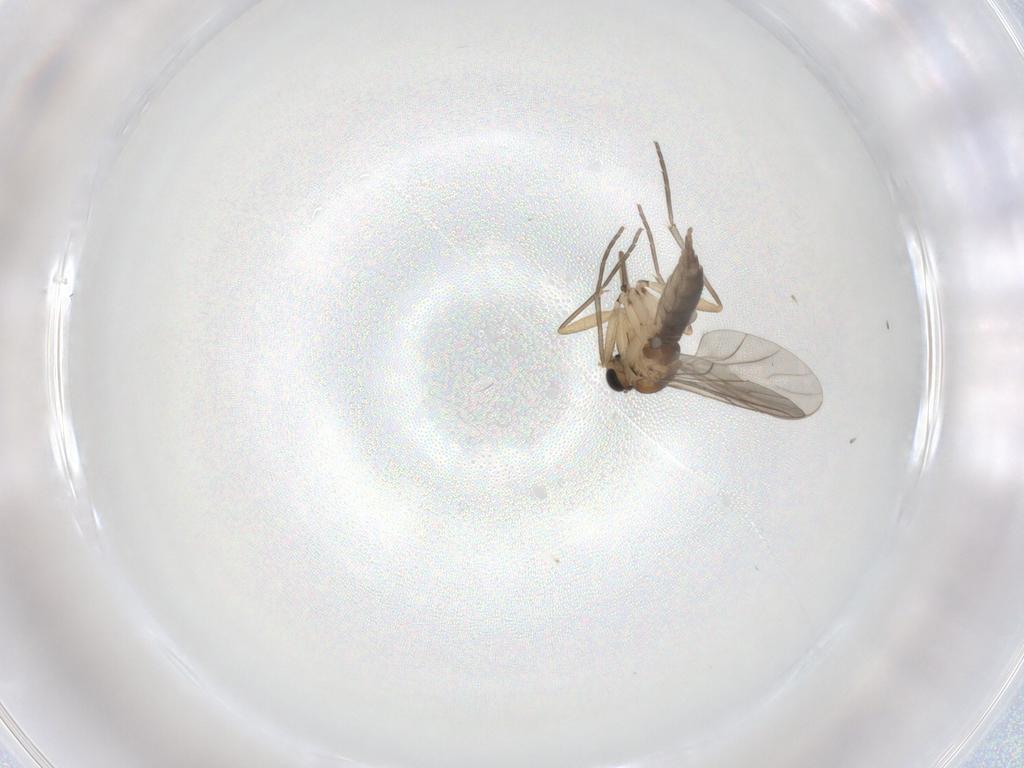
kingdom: Animalia
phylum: Arthropoda
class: Insecta
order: Diptera
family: Sciaridae
